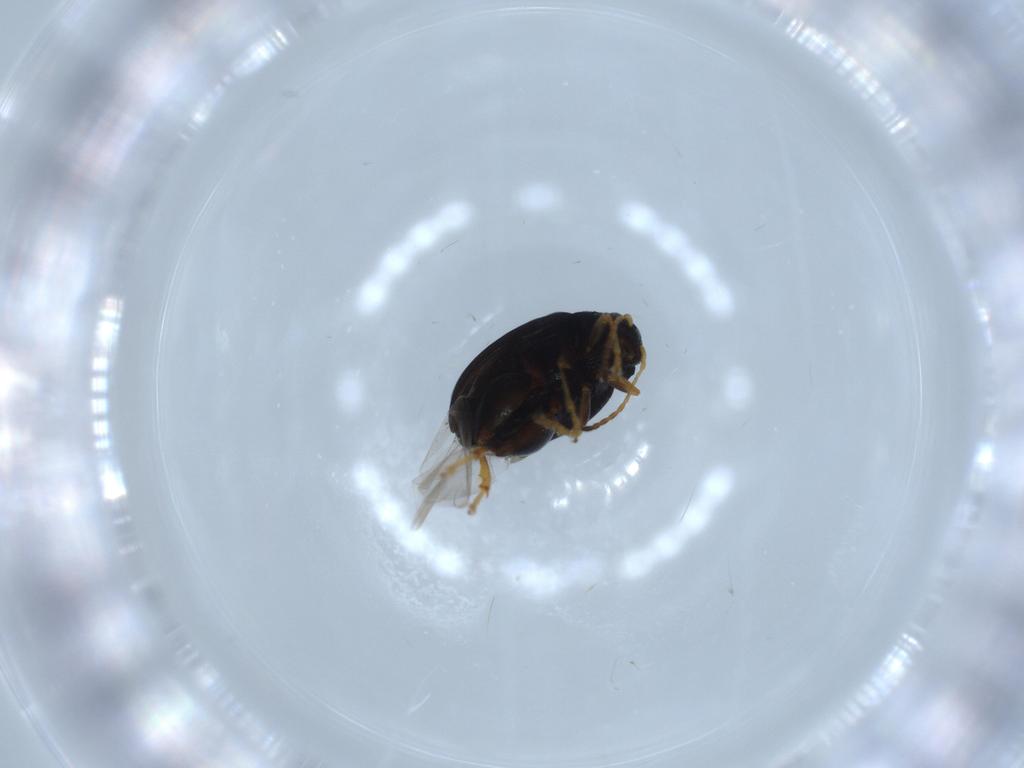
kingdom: Animalia
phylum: Arthropoda
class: Insecta
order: Coleoptera
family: Chrysomelidae
